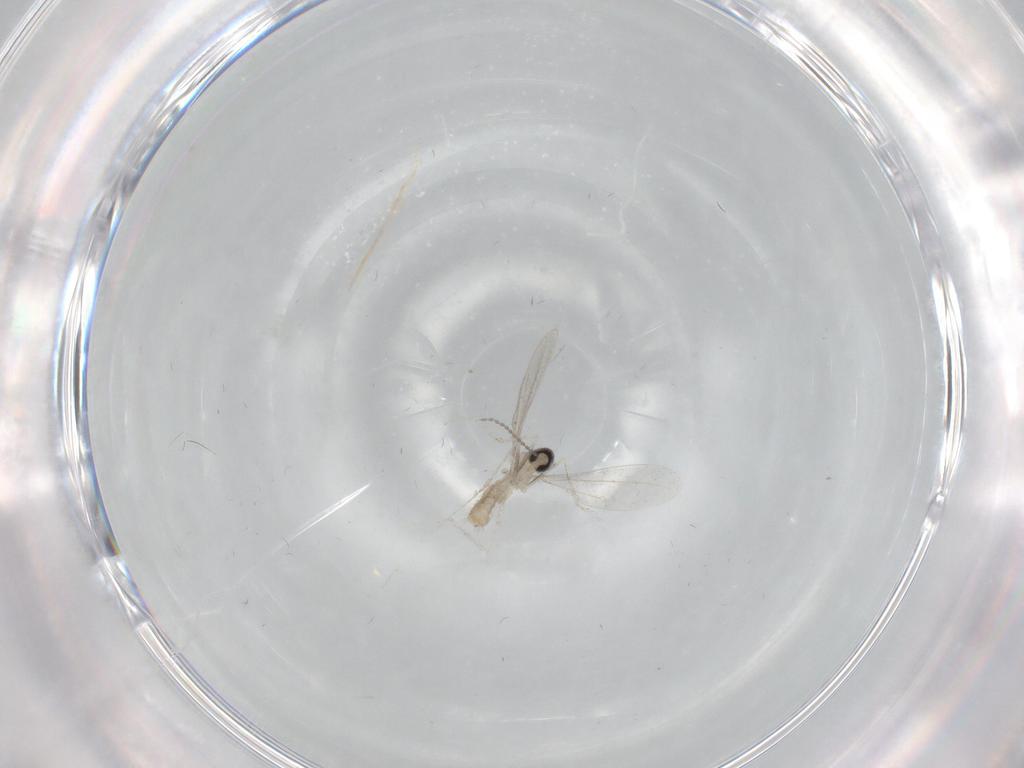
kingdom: Animalia
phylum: Arthropoda
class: Insecta
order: Diptera
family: Cecidomyiidae
